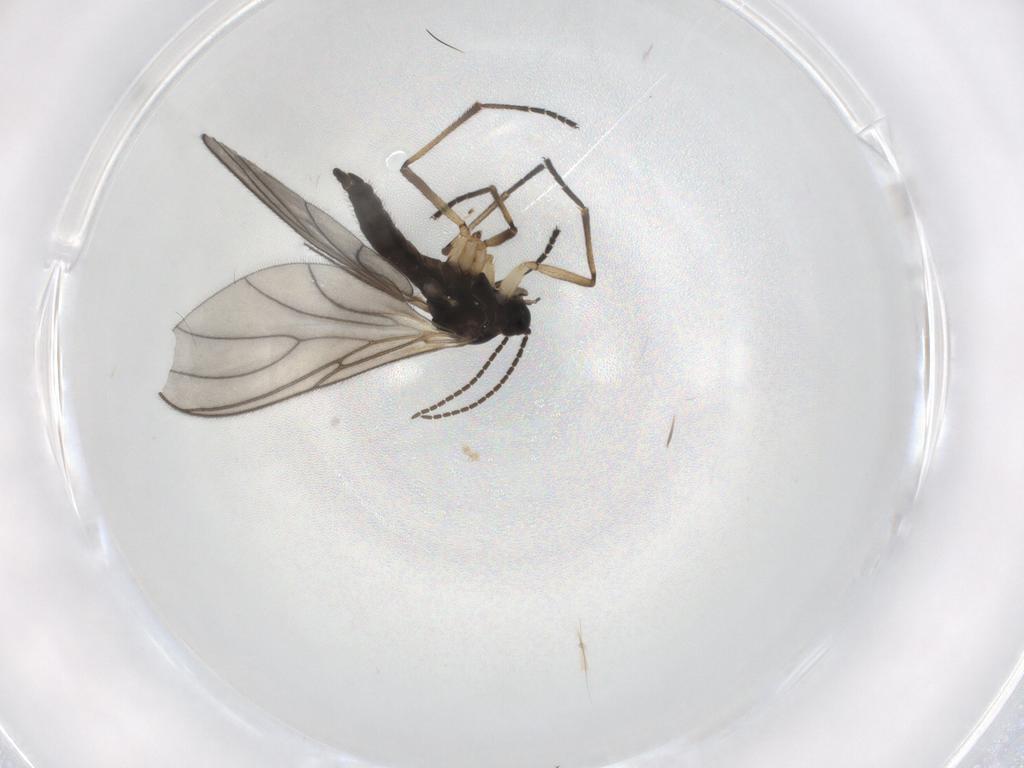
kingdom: Animalia
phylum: Arthropoda
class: Insecta
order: Diptera
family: Sciaridae
